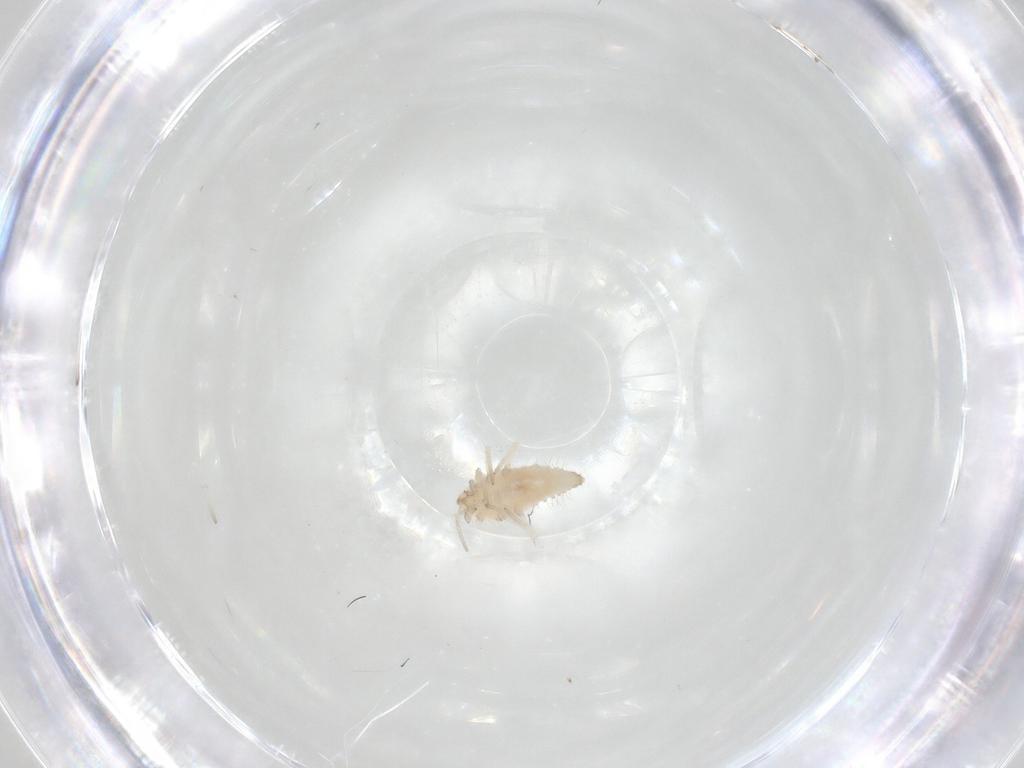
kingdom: Animalia
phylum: Arthropoda
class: Insecta
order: Neuroptera
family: Coniopterygidae
